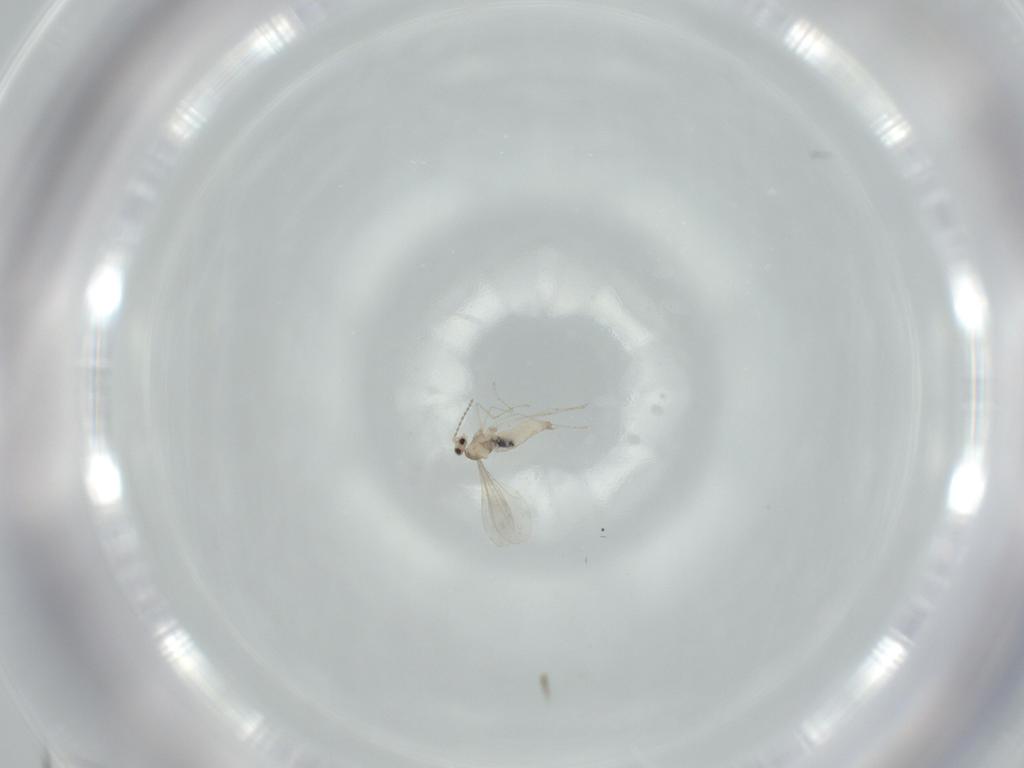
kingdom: Animalia
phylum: Arthropoda
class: Insecta
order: Diptera
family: Cecidomyiidae
